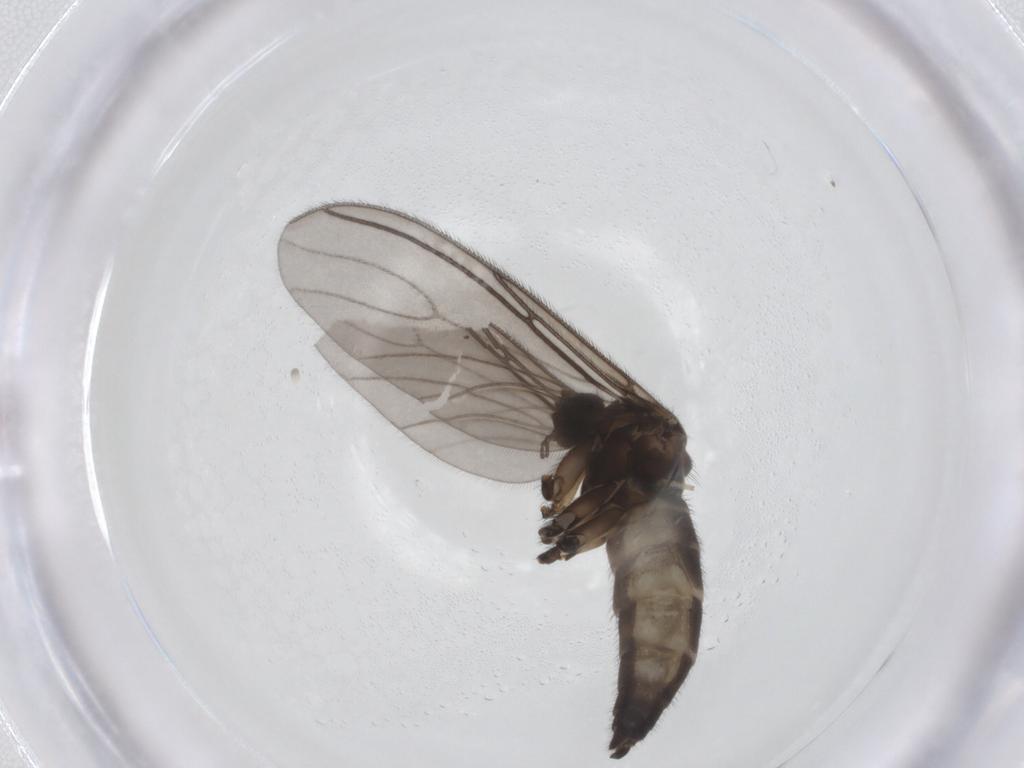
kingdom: Animalia
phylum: Arthropoda
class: Insecta
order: Diptera
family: Sciaridae
